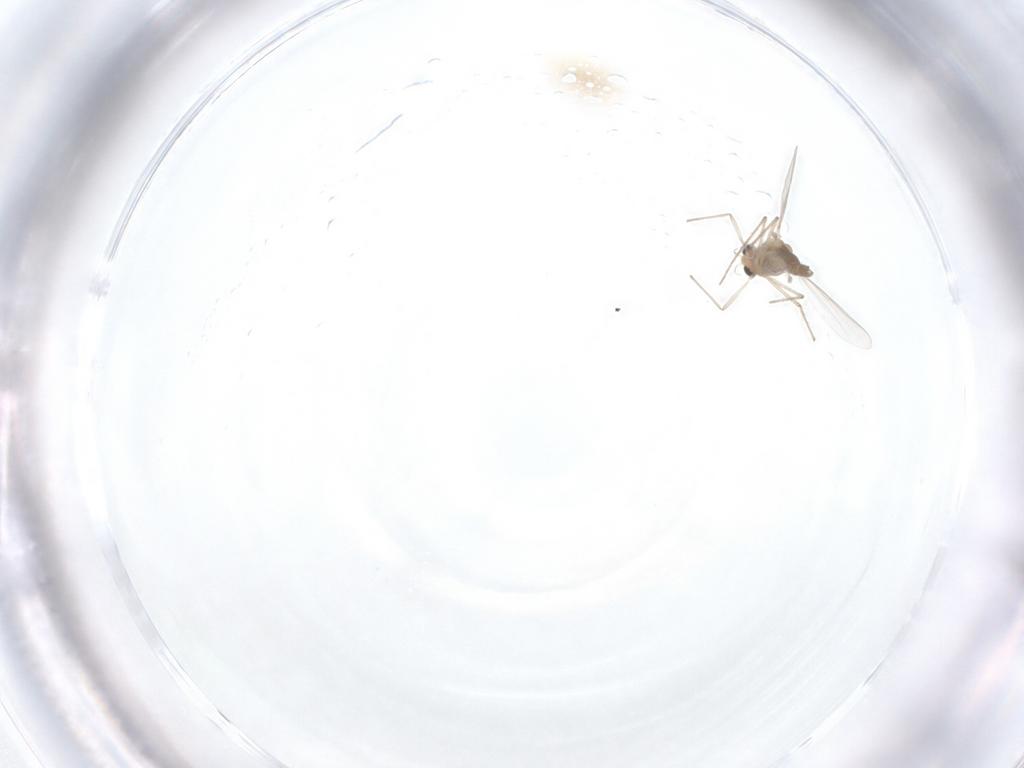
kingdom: Animalia
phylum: Arthropoda
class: Insecta
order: Diptera
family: Chironomidae
